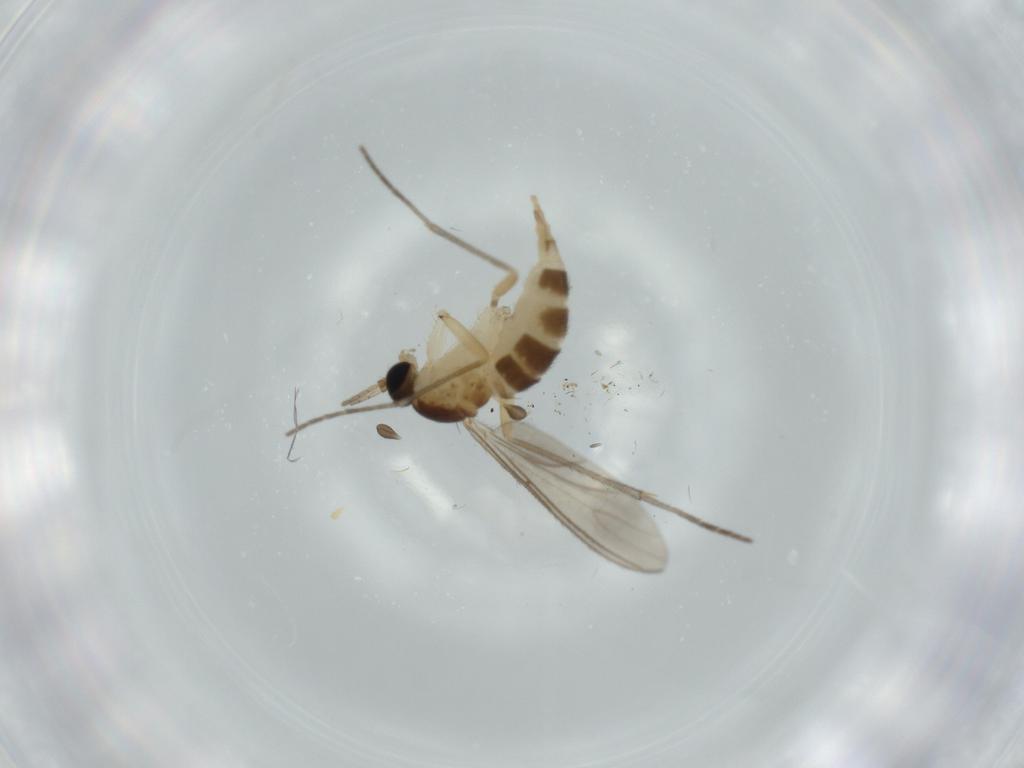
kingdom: Animalia
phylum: Arthropoda
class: Insecta
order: Diptera
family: Sciaridae
